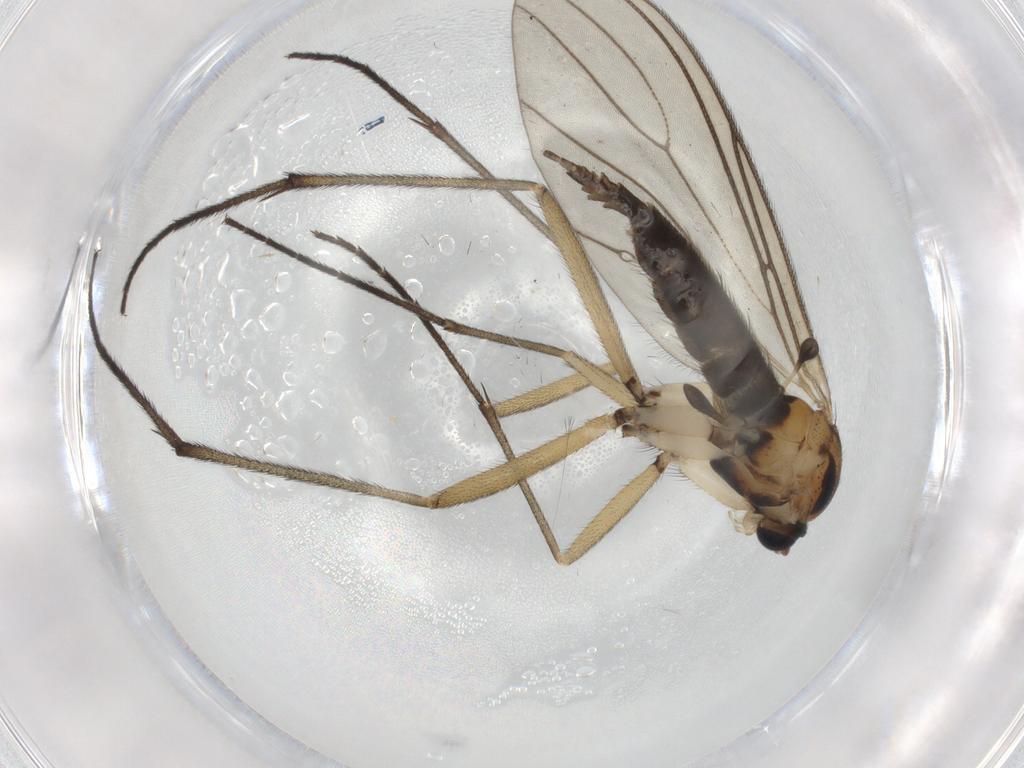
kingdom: Animalia
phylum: Arthropoda
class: Insecta
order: Diptera
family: Sciaridae
